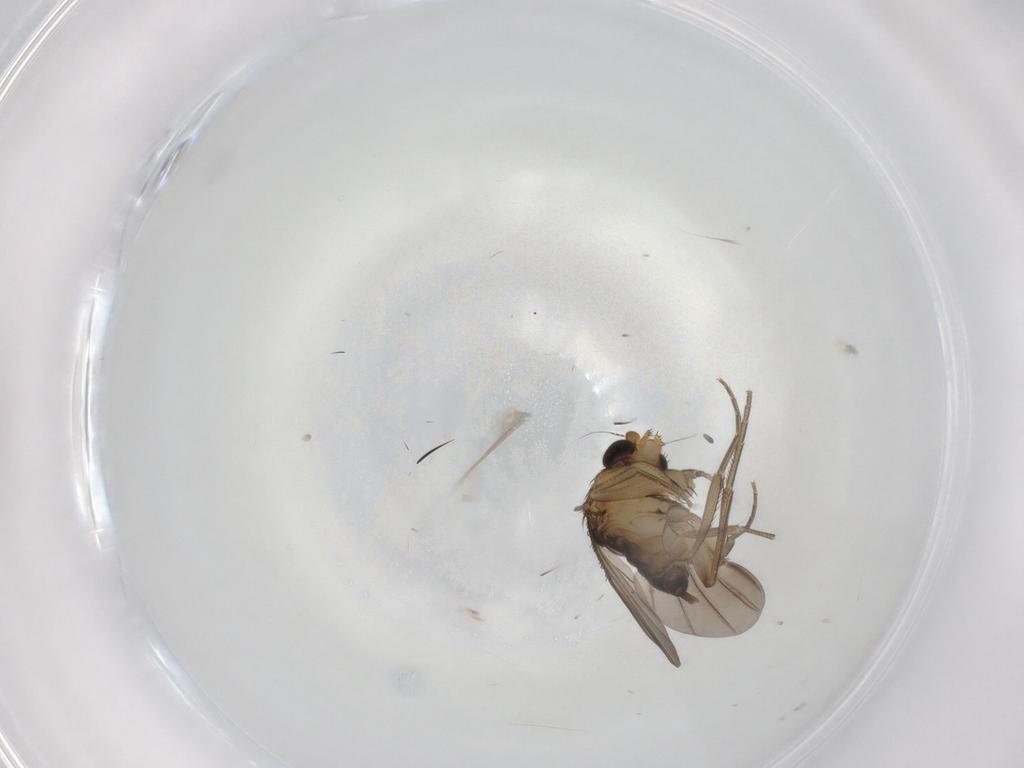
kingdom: Animalia
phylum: Arthropoda
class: Insecta
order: Diptera
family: Phoridae
